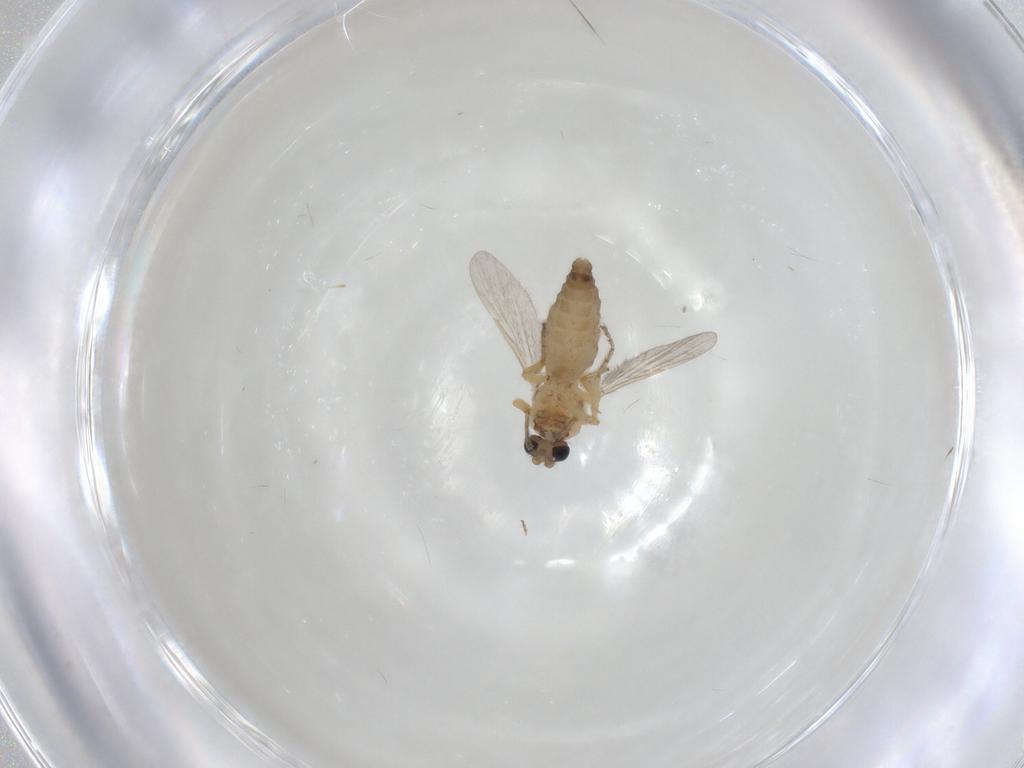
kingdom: Animalia
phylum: Arthropoda
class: Insecta
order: Diptera
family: Ceratopogonidae
